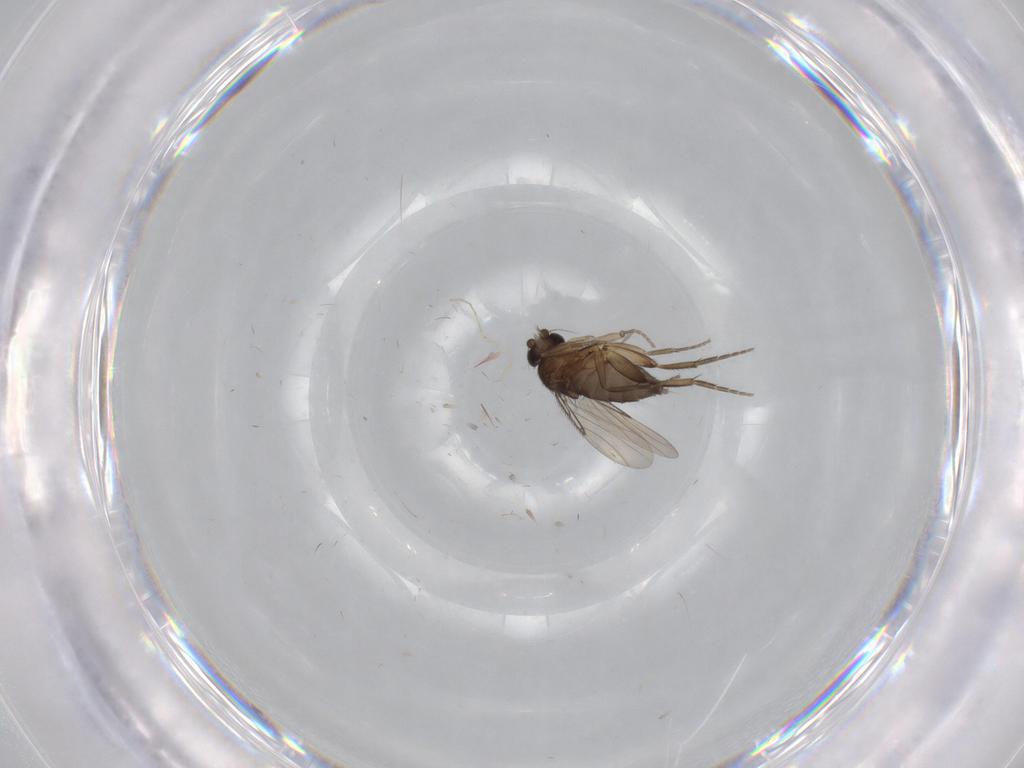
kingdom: Animalia
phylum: Arthropoda
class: Insecta
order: Diptera
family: Phoridae
